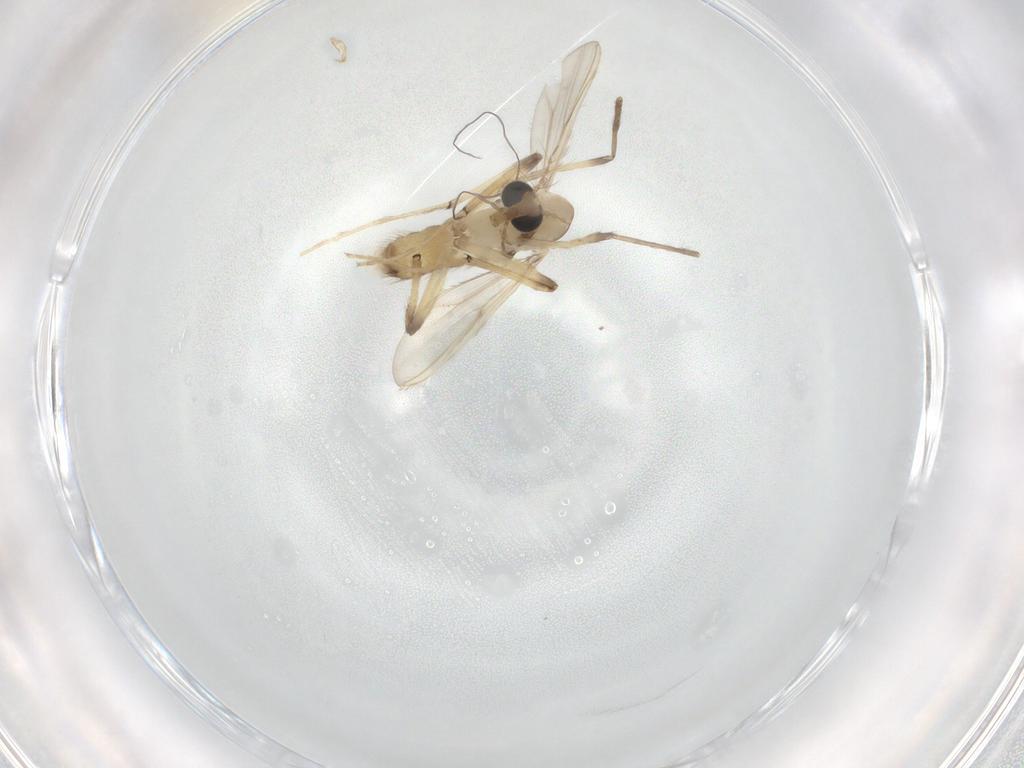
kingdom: Animalia
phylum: Arthropoda
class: Insecta
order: Diptera
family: Chironomidae
